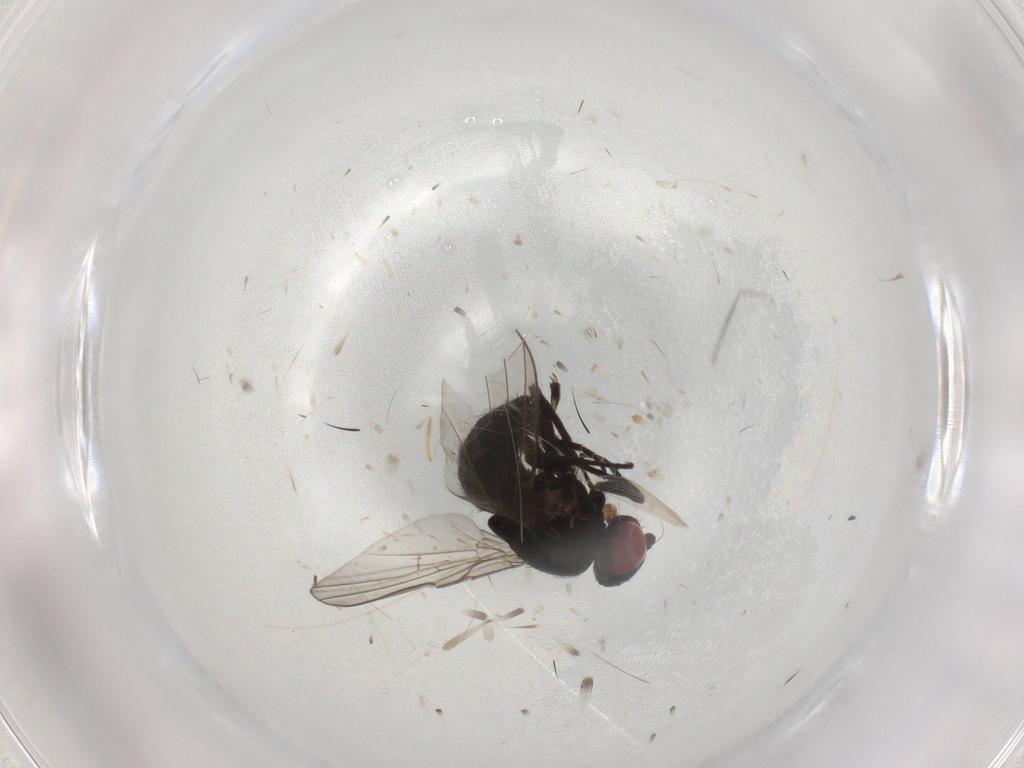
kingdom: Animalia
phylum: Arthropoda
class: Insecta
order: Diptera
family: Agromyzidae
